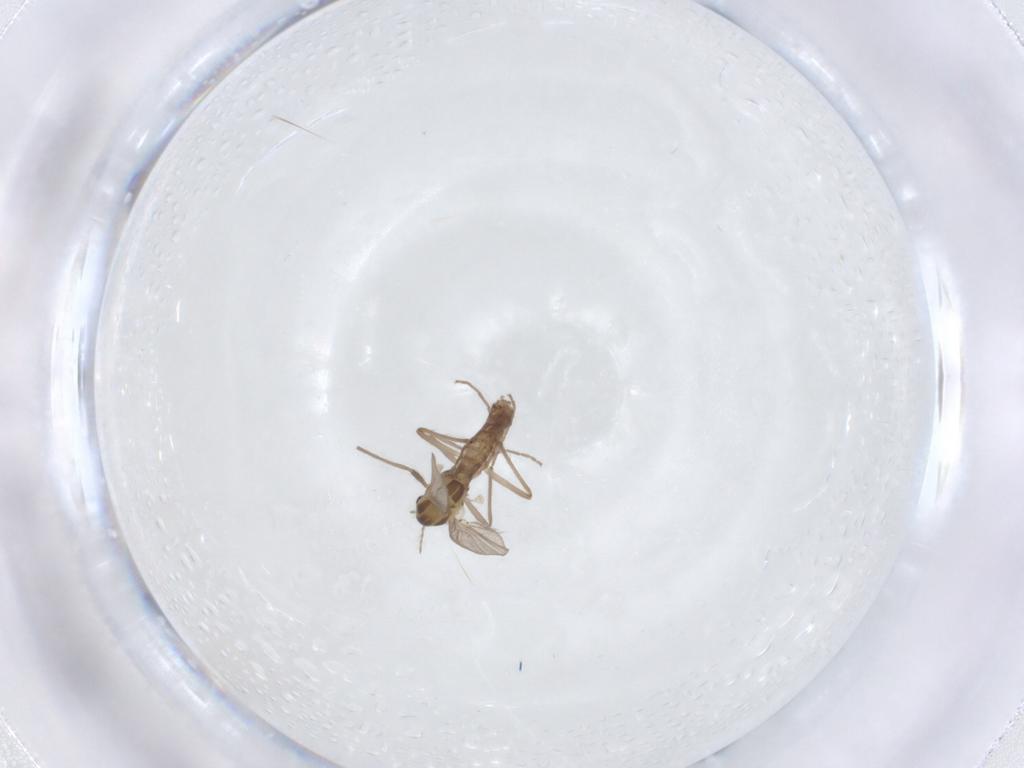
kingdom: Animalia
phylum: Arthropoda
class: Insecta
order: Diptera
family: Chironomidae
